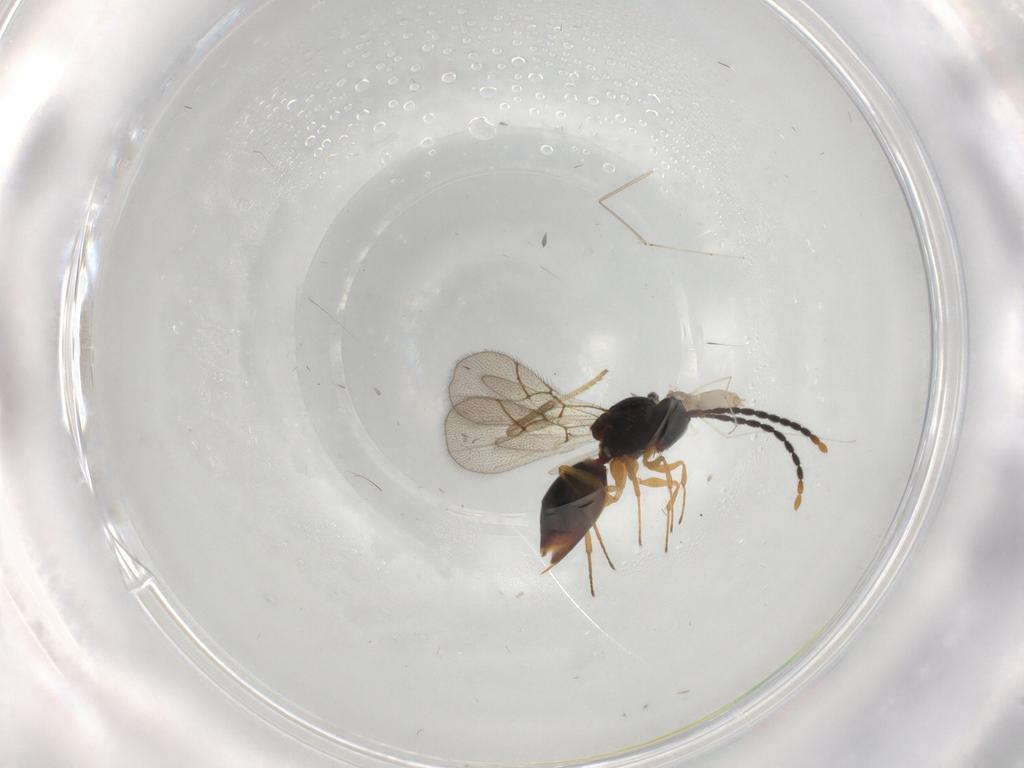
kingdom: Animalia
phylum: Arthropoda
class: Insecta
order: Hymenoptera
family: Figitidae
